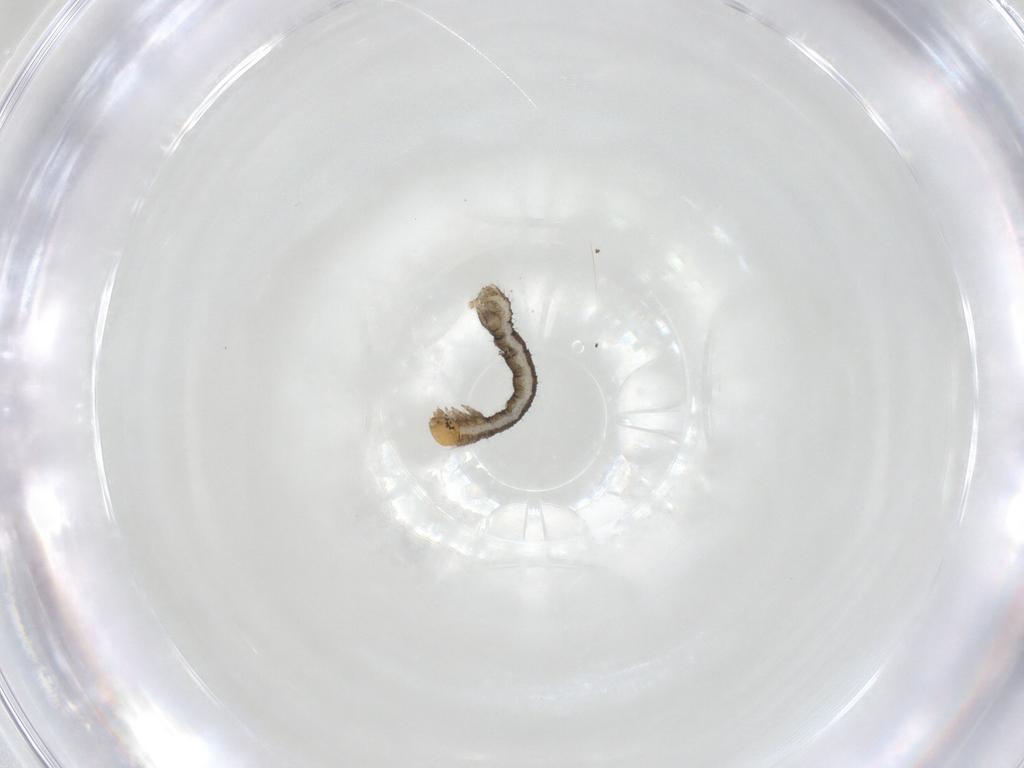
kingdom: Animalia
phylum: Arthropoda
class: Insecta
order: Lepidoptera
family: Geometridae
